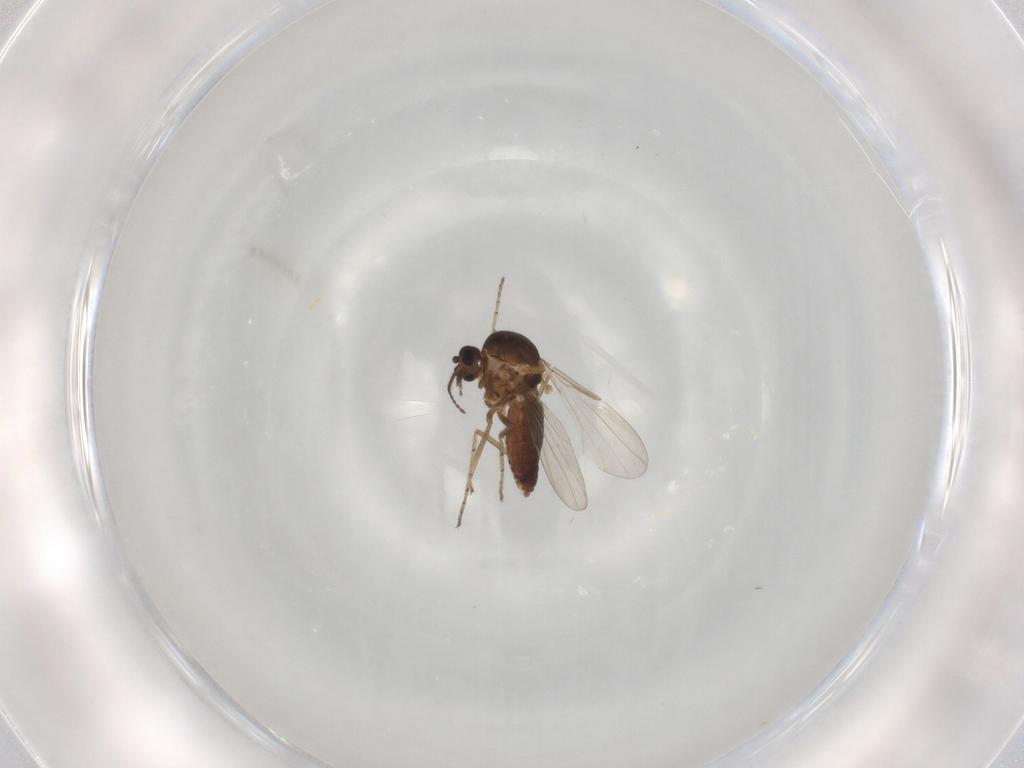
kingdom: Animalia
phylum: Arthropoda
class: Insecta
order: Diptera
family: Ceratopogonidae
